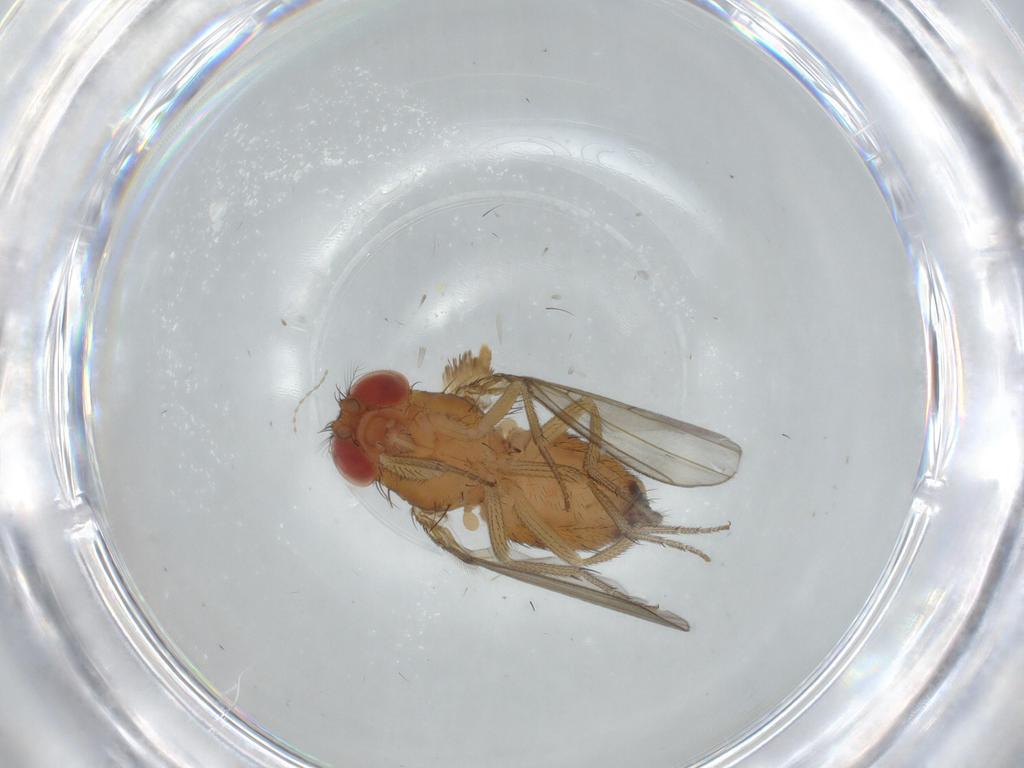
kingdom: Animalia
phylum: Arthropoda
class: Insecta
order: Diptera
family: Drosophilidae
